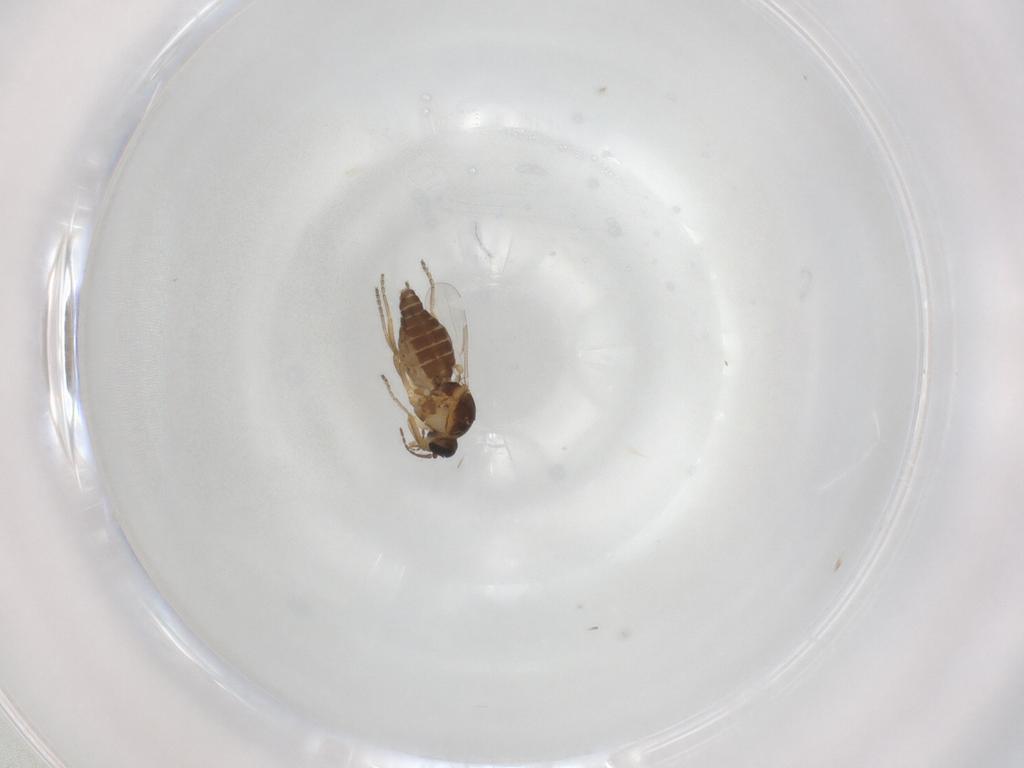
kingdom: Animalia
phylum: Arthropoda
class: Insecta
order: Diptera
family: Ceratopogonidae
